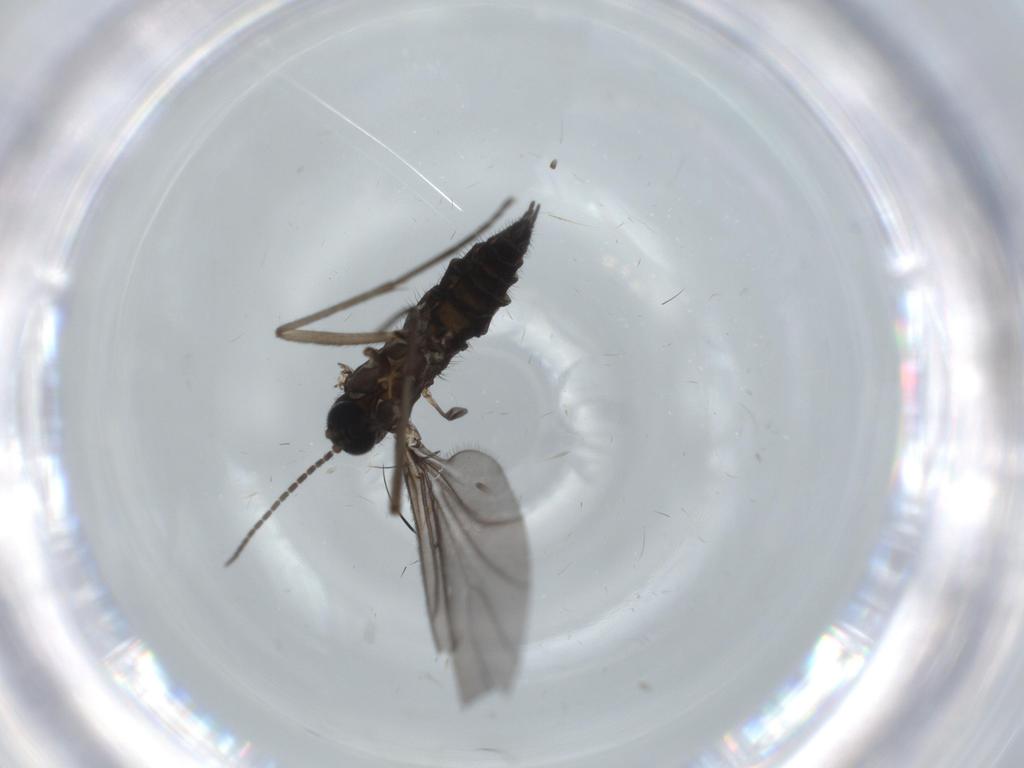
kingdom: Animalia
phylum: Arthropoda
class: Insecta
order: Diptera
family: Sciaridae
